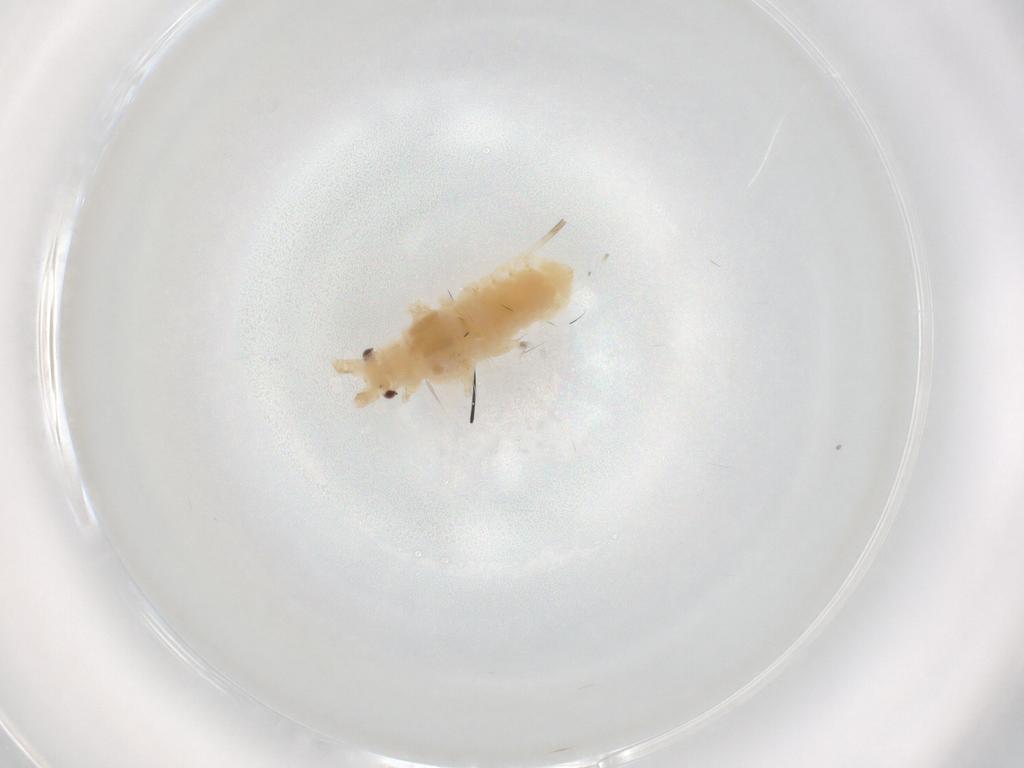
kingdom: Animalia
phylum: Arthropoda
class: Insecta
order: Hemiptera
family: Aphididae
